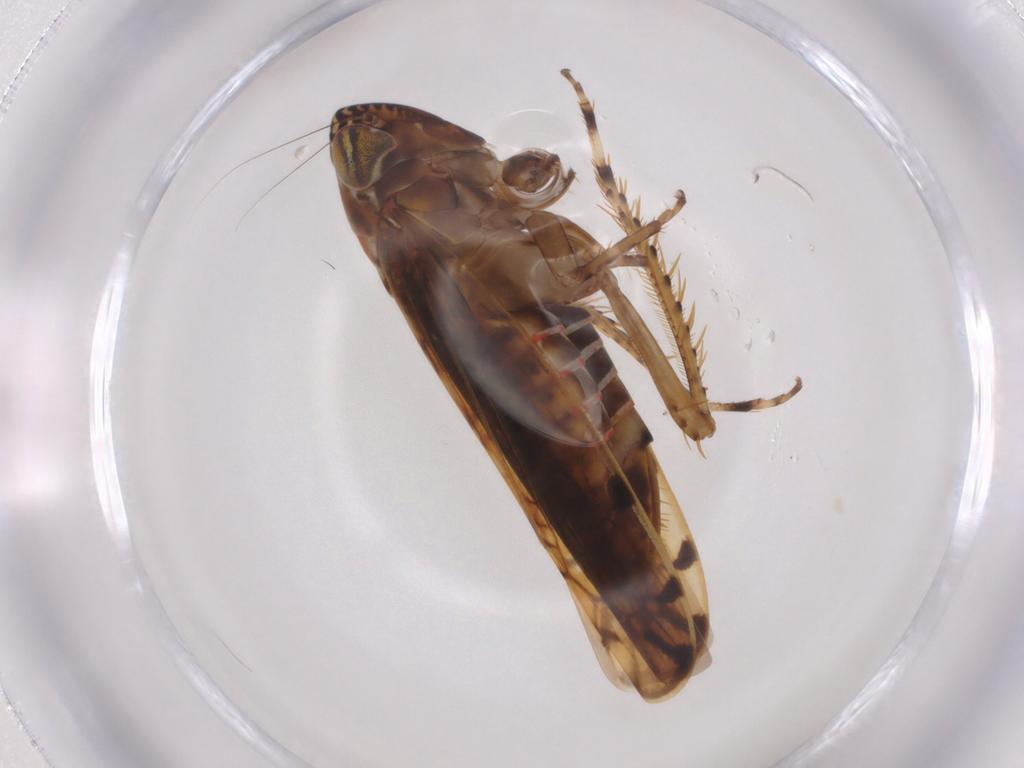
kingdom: Animalia
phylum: Arthropoda
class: Insecta
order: Hemiptera
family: Cicadellidae
